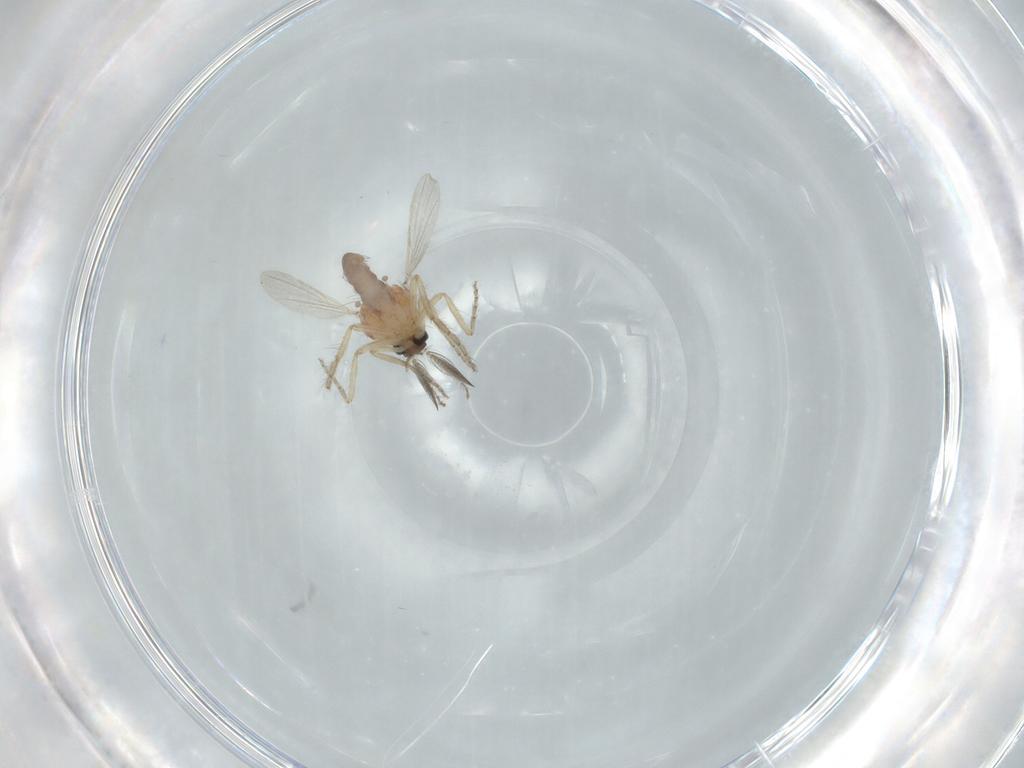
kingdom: Animalia
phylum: Arthropoda
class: Insecta
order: Diptera
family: Ceratopogonidae
